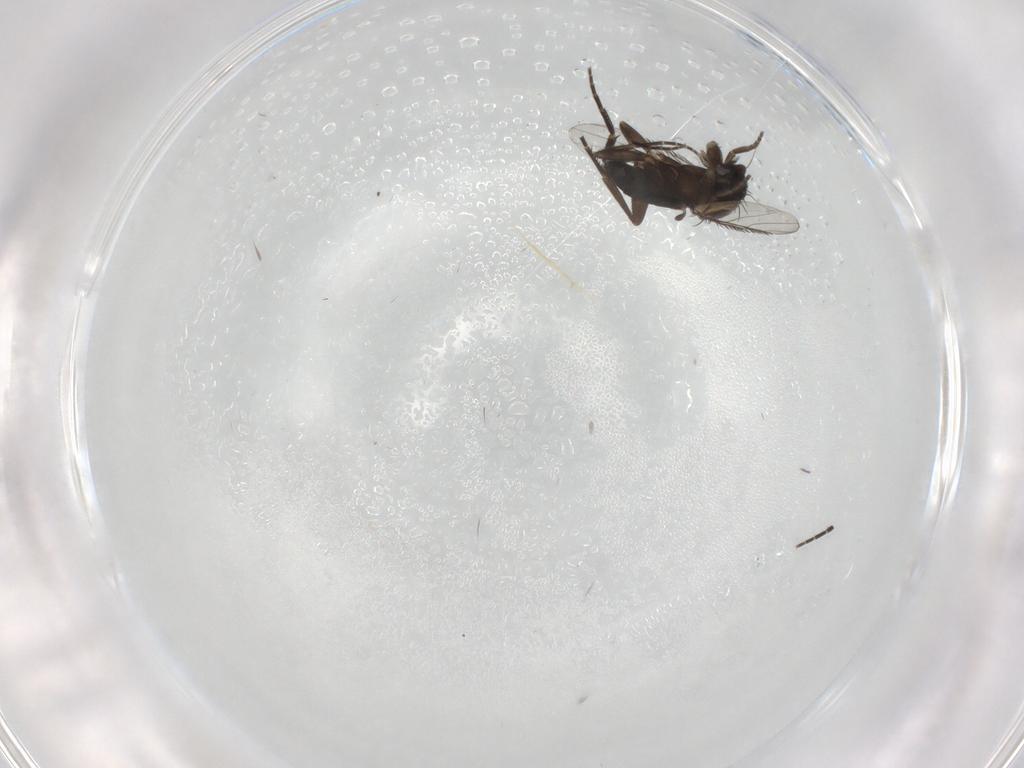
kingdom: Animalia
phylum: Arthropoda
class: Insecta
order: Diptera
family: Phoridae
